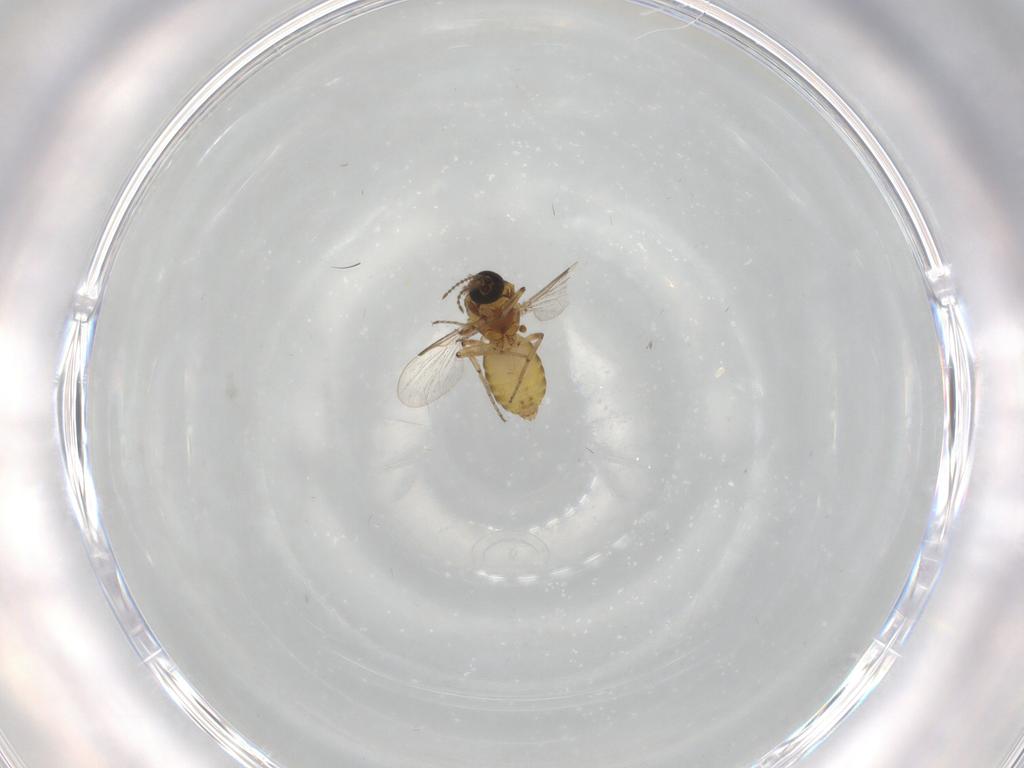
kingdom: Animalia
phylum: Arthropoda
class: Insecta
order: Diptera
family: Ceratopogonidae
